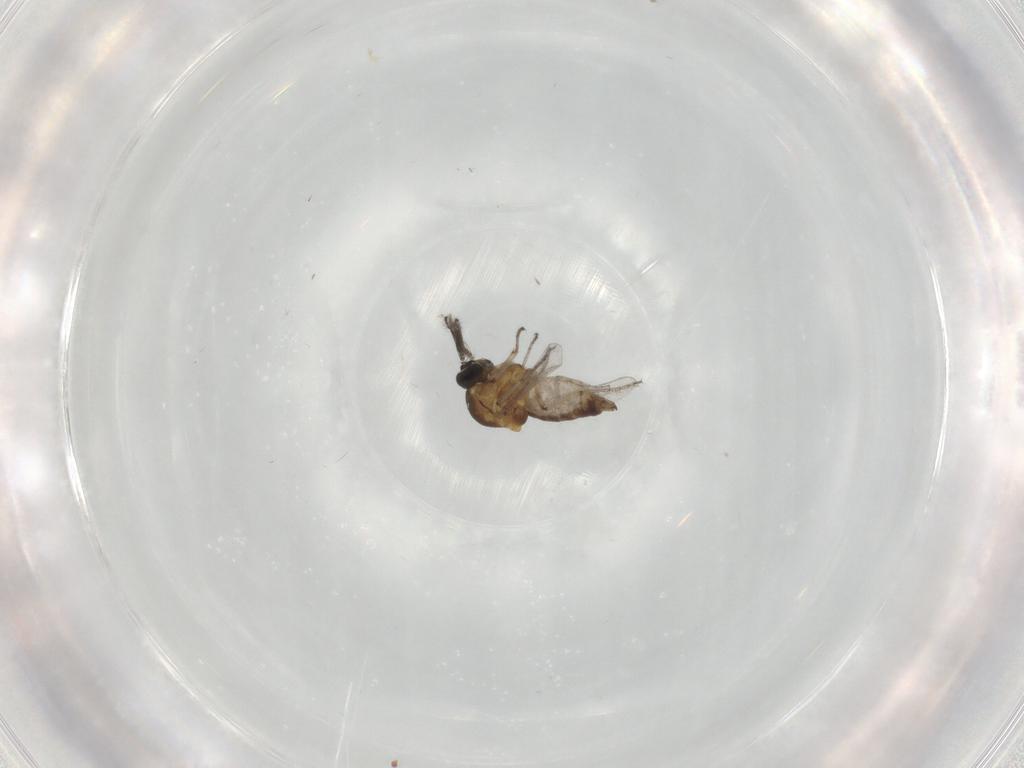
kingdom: Animalia
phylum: Arthropoda
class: Insecta
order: Diptera
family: Ceratopogonidae
